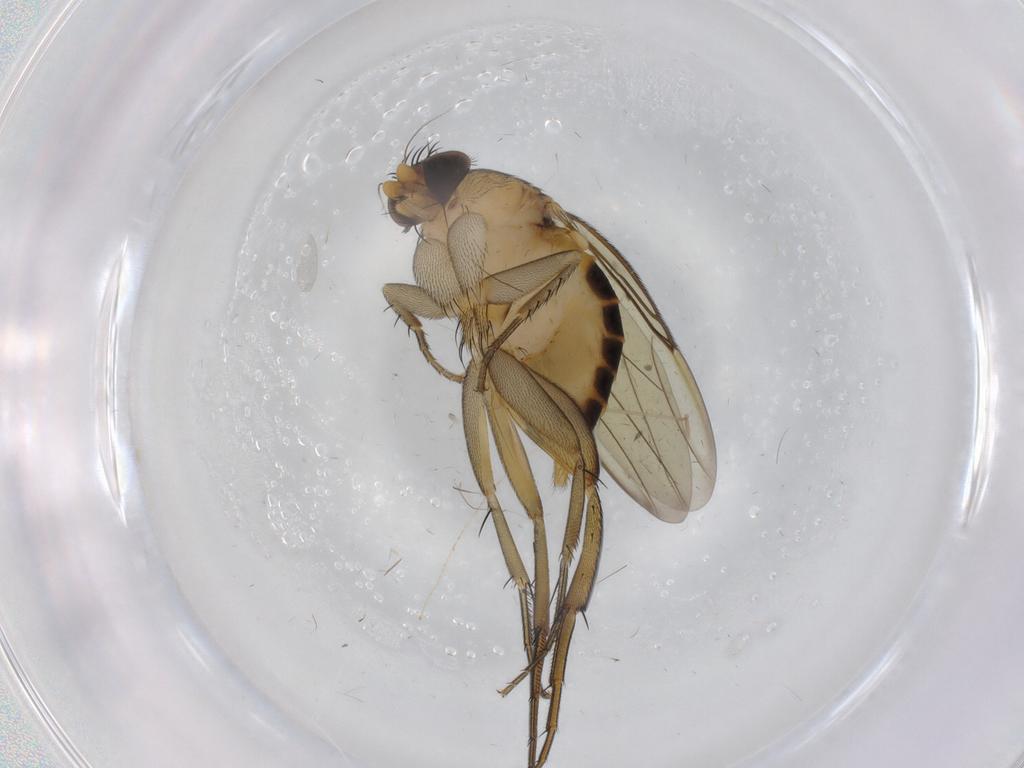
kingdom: Animalia
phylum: Arthropoda
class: Insecta
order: Diptera
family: Phoridae
